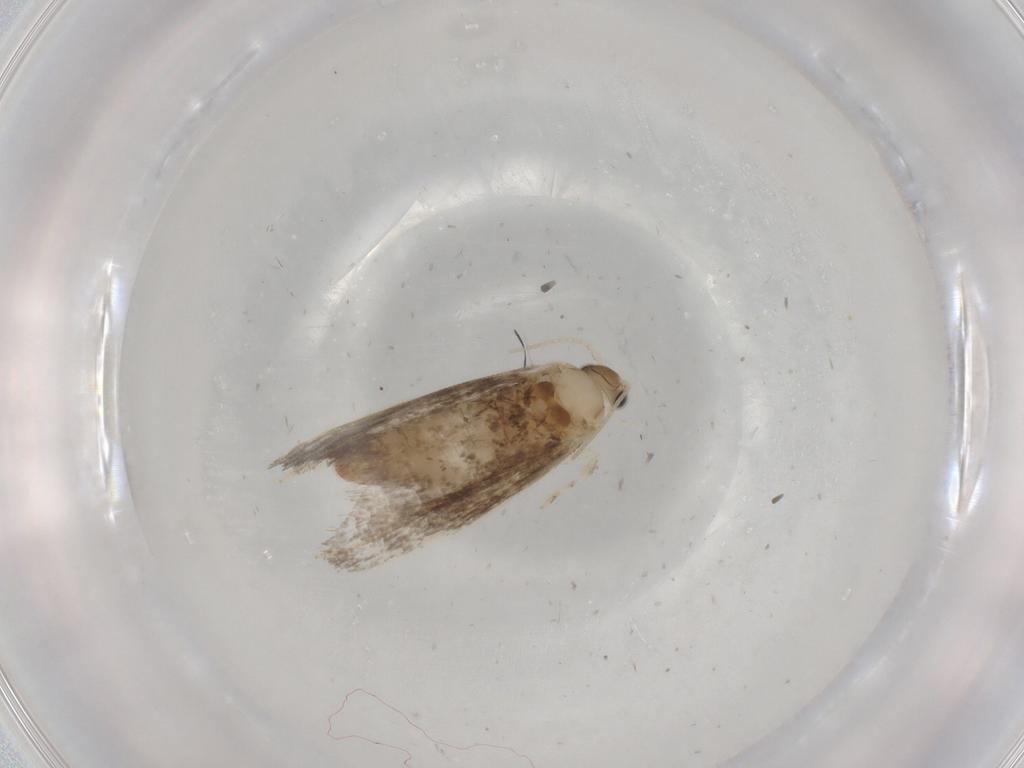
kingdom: Animalia
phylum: Arthropoda
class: Insecta
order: Lepidoptera
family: Tineidae
